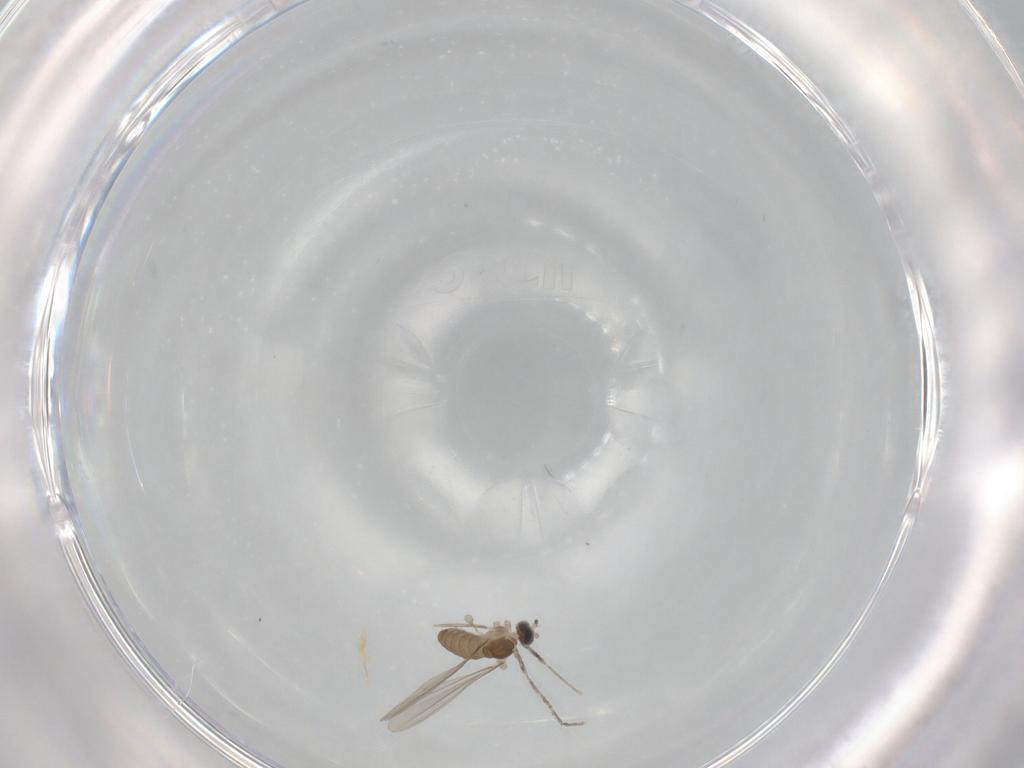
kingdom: Animalia
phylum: Arthropoda
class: Insecta
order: Diptera
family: Cecidomyiidae
